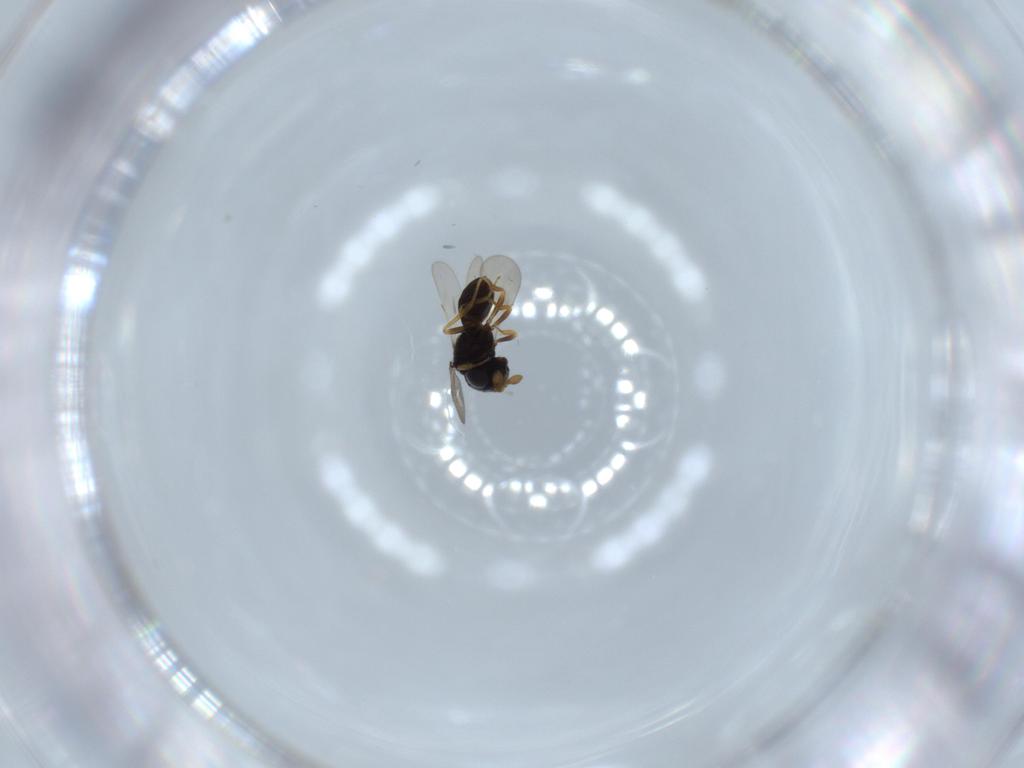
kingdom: Animalia
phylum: Arthropoda
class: Insecta
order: Hymenoptera
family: Scelionidae
